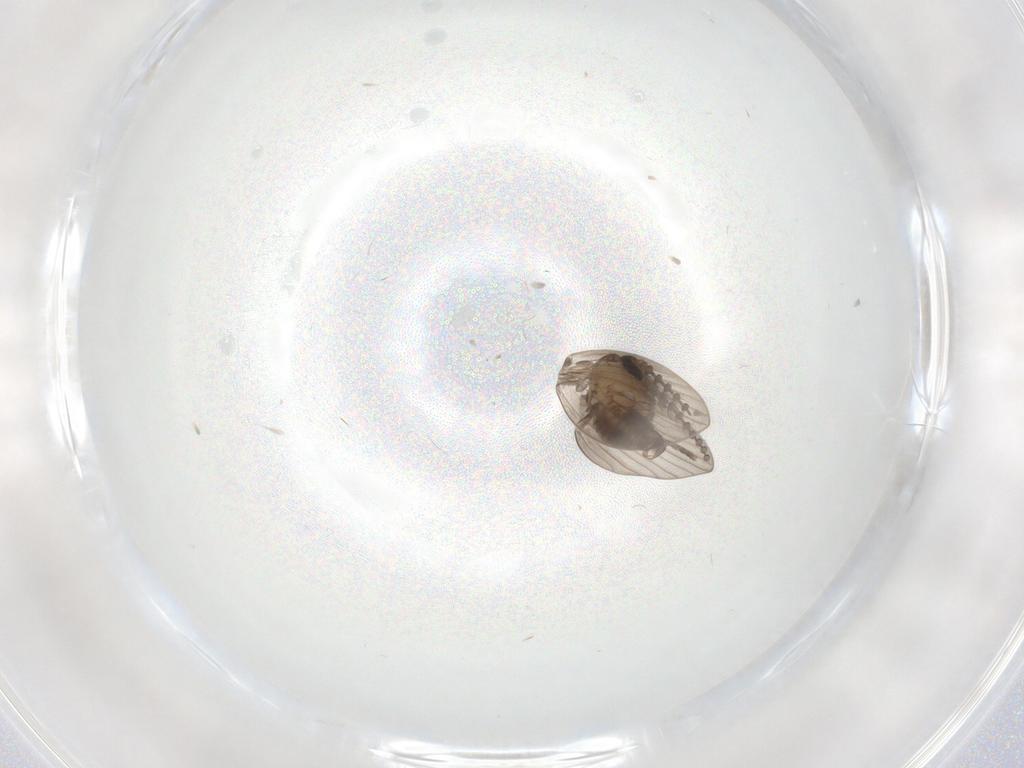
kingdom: Animalia
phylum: Arthropoda
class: Insecta
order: Diptera
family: Psychodidae
